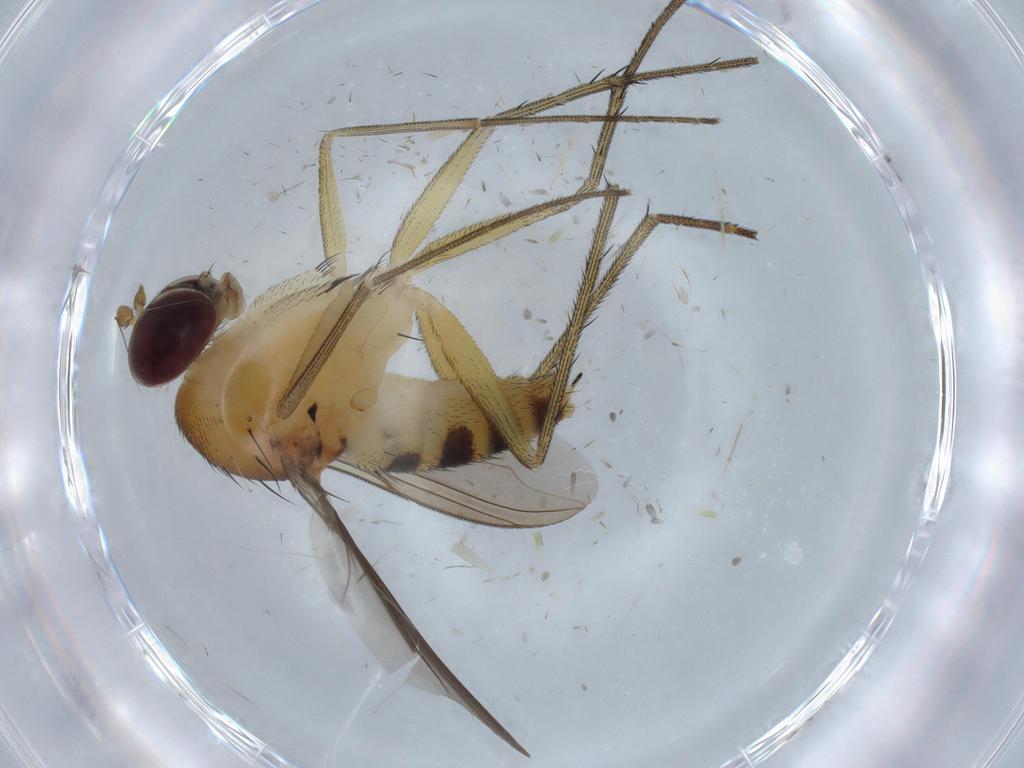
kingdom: Animalia
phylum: Arthropoda
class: Insecta
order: Diptera
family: Dolichopodidae
